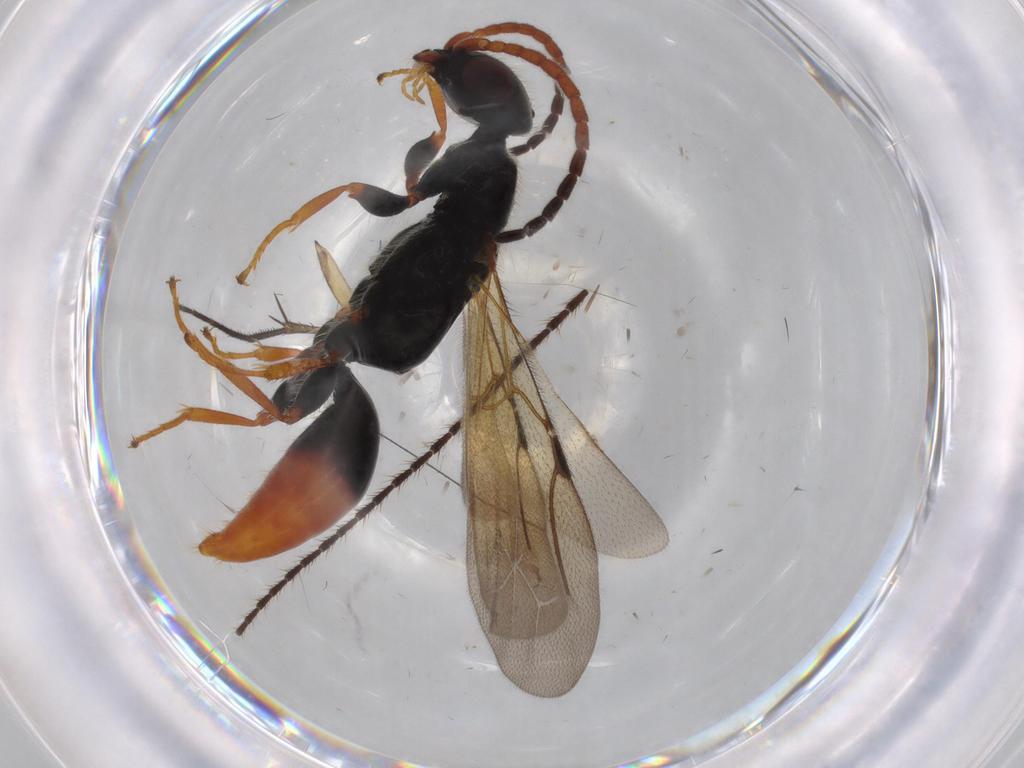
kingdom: Animalia
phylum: Arthropoda
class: Insecta
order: Hymenoptera
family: Bethylidae
